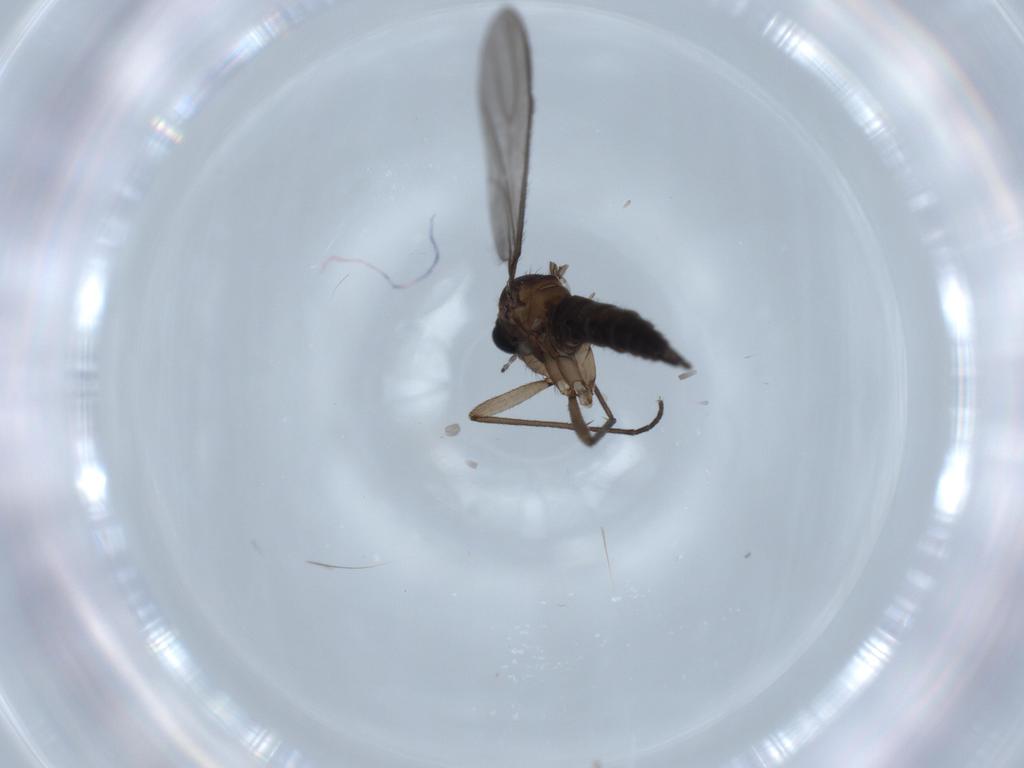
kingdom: Animalia
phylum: Arthropoda
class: Insecta
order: Diptera
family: Sciaridae
